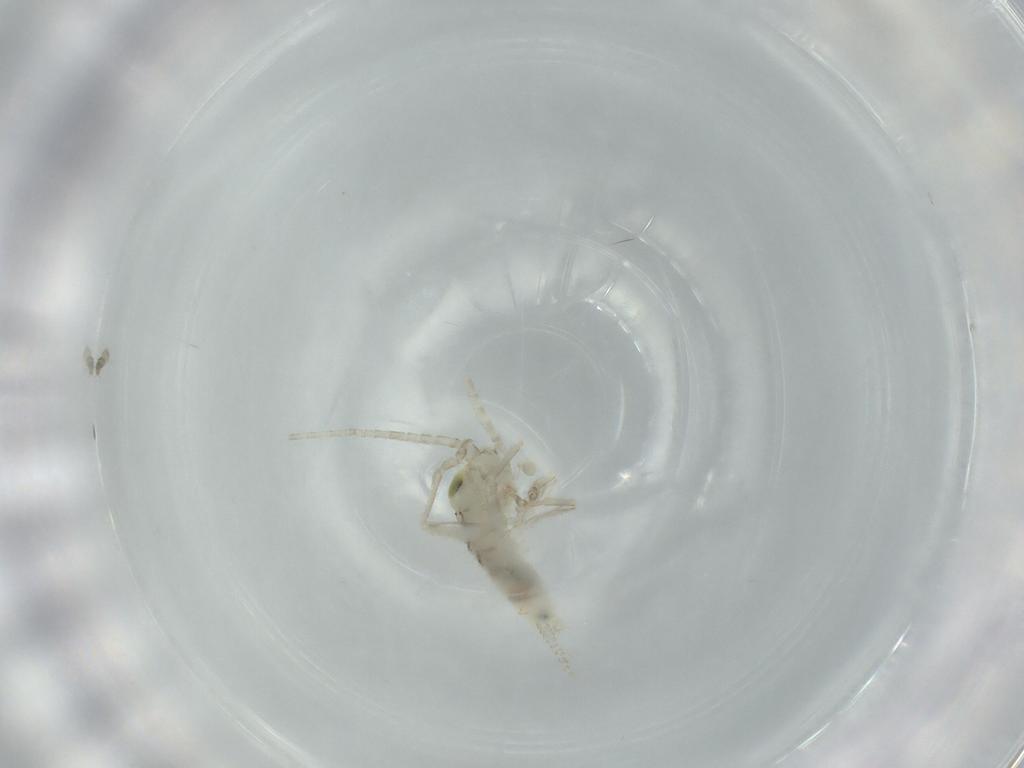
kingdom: Animalia
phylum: Arthropoda
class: Insecta
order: Orthoptera
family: Trigonidiidae
